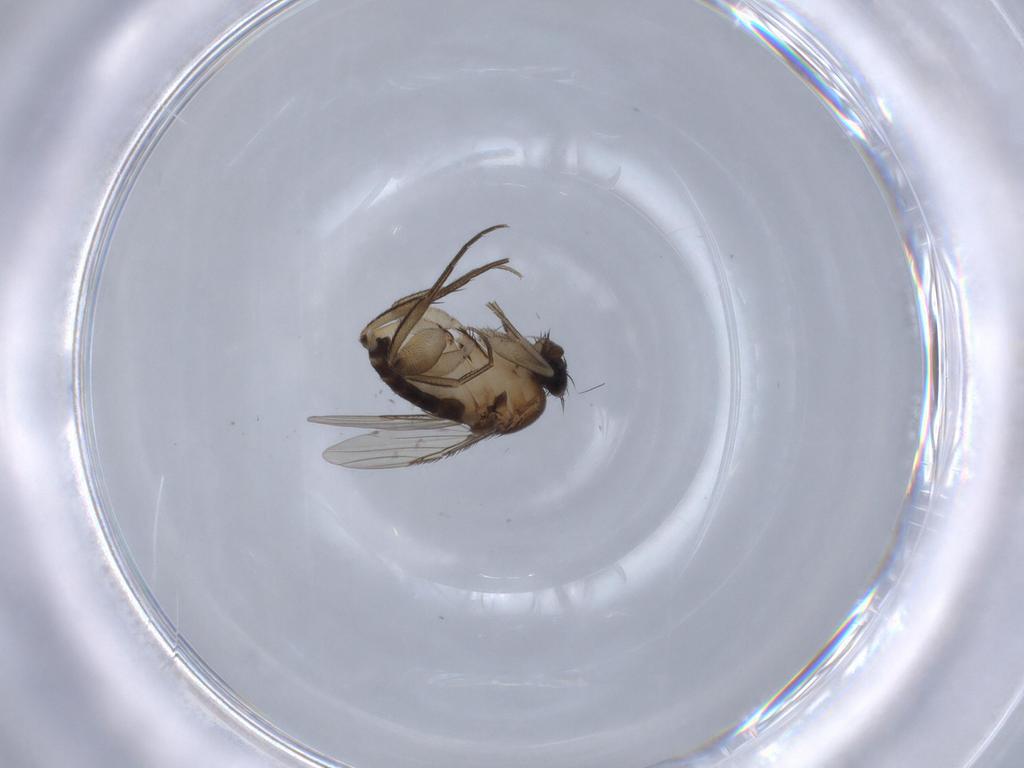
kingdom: Animalia
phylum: Arthropoda
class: Insecta
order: Diptera
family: Phoridae
